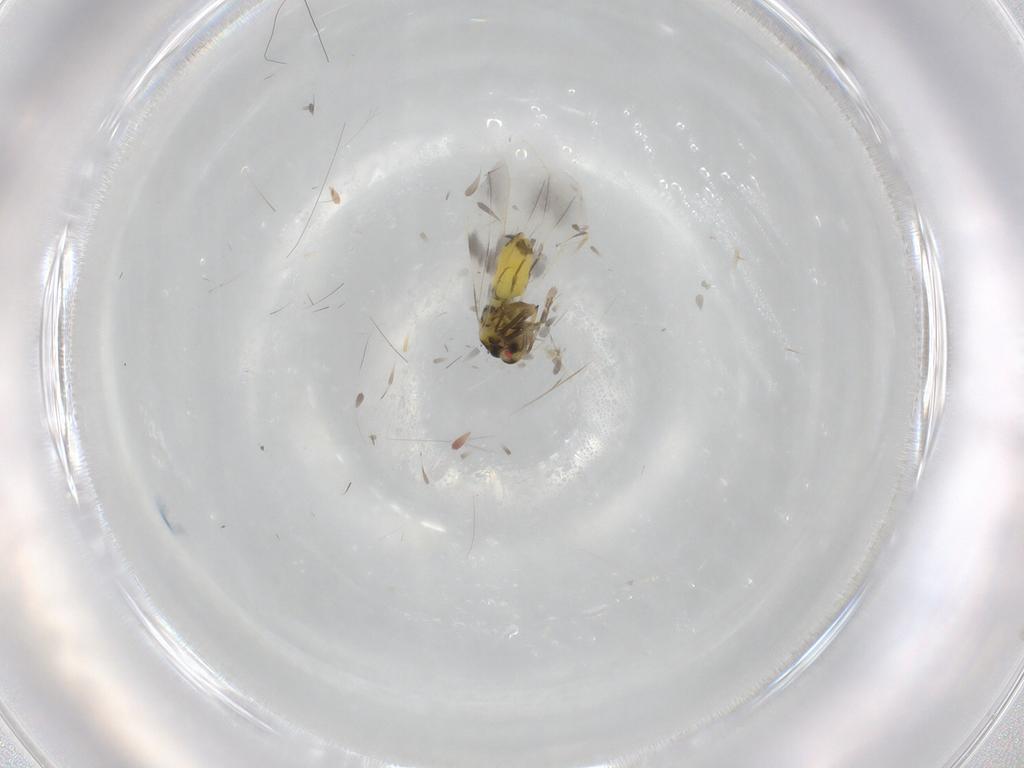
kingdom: Animalia
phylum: Arthropoda
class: Insecta
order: Hemiptera
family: Aleyrodidae
